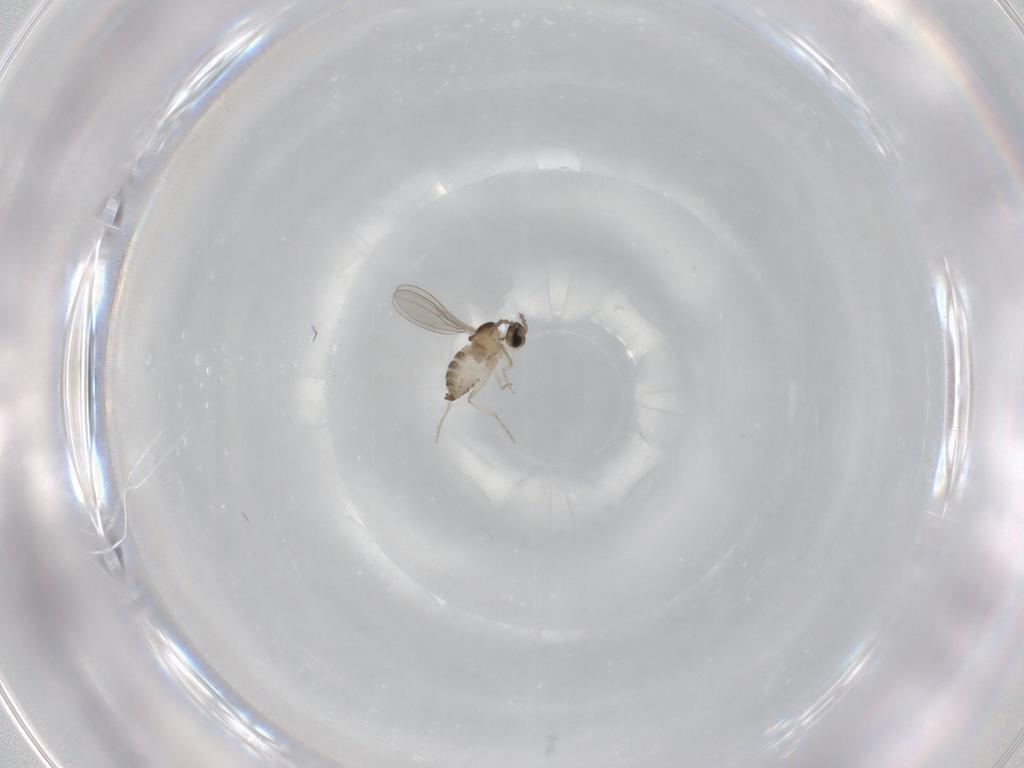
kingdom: Animalia
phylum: Arthropoda
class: Insecta
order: Diptera
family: Cecidomyiidae
